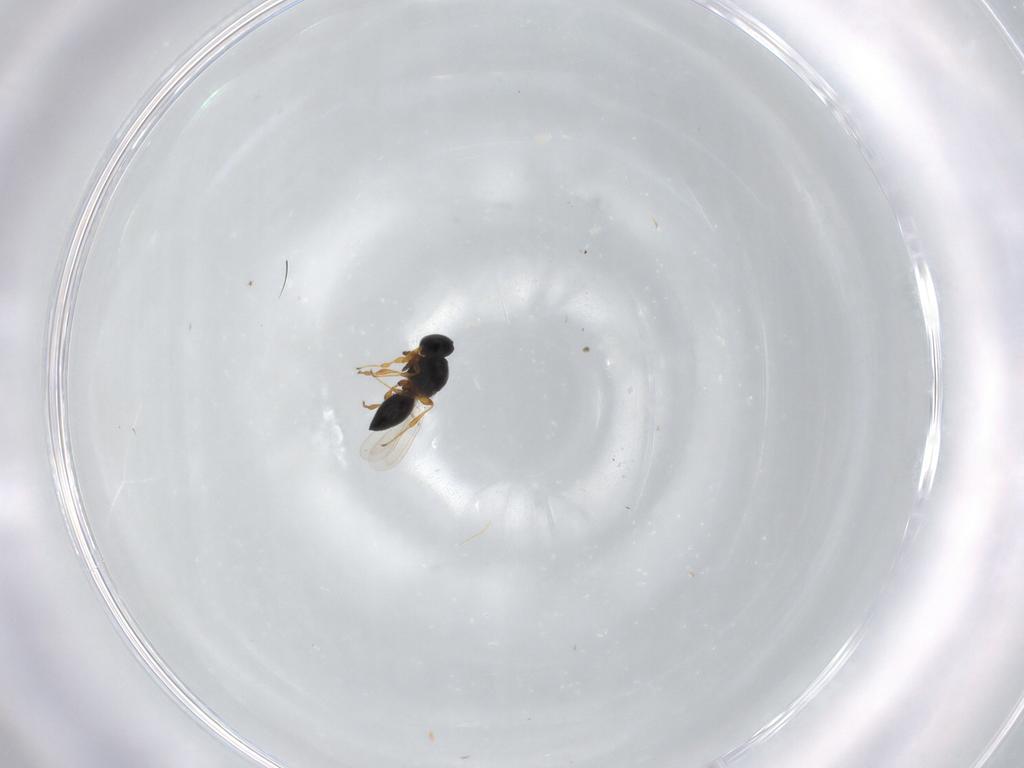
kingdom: Animalia
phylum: Arthropoda
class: Insecta
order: Hymenoptera
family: Platygastridae
